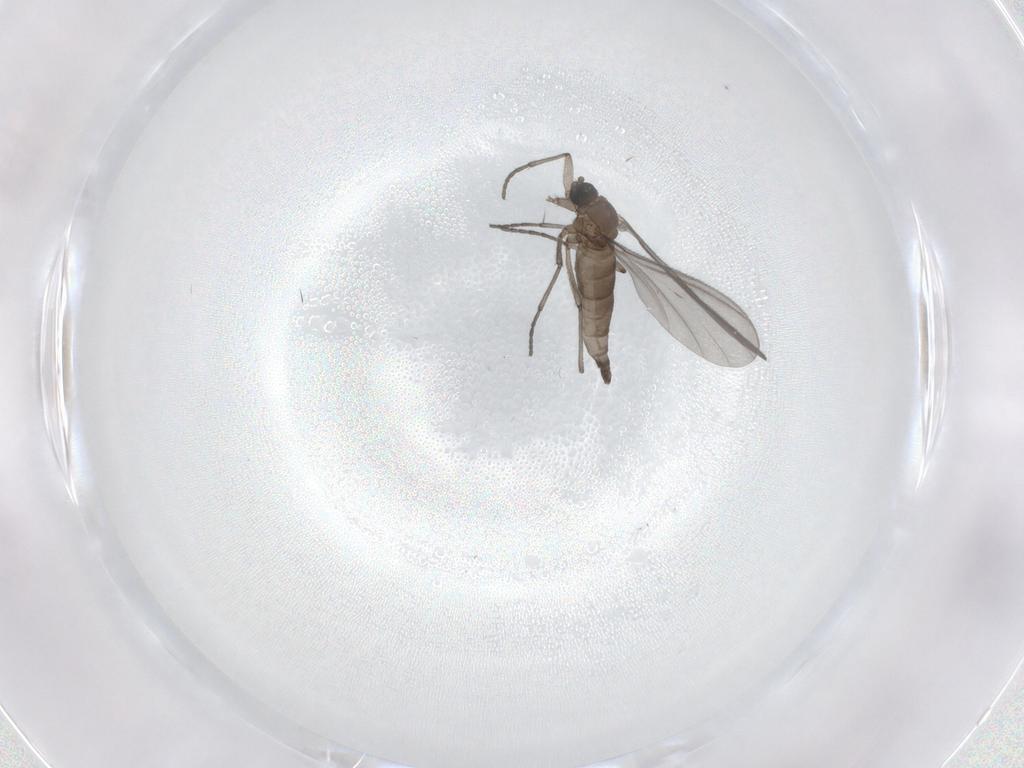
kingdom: Animalia
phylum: Arthropoda
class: Insecta
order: Diptera
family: Sciaridae
